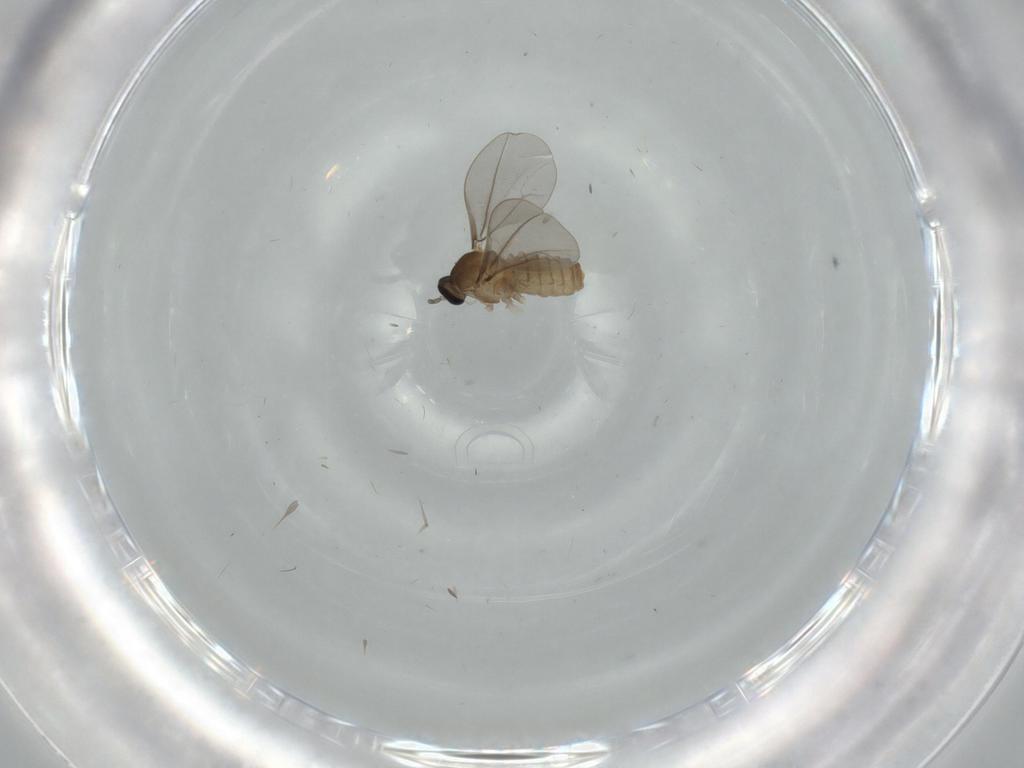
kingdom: Animalia
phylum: Arthropoda
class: Insecta
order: Diptera
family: Cecidomyiidae
